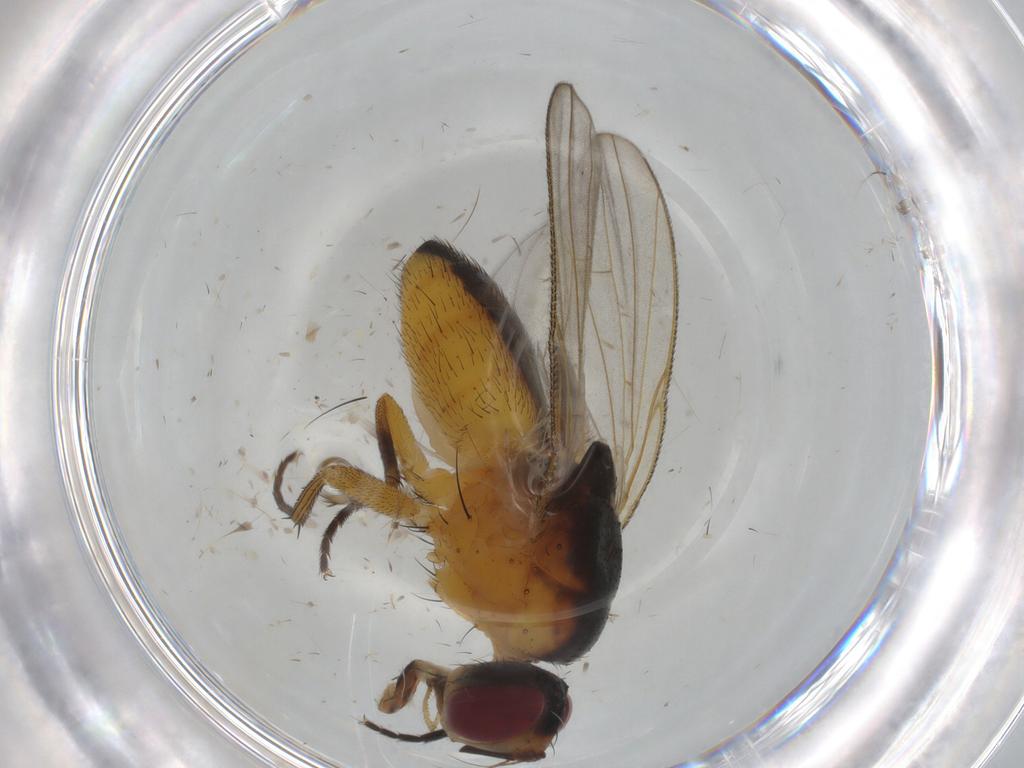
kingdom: Animalia
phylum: Arthropoda
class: Insecta
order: Diptera
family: Muscidae
